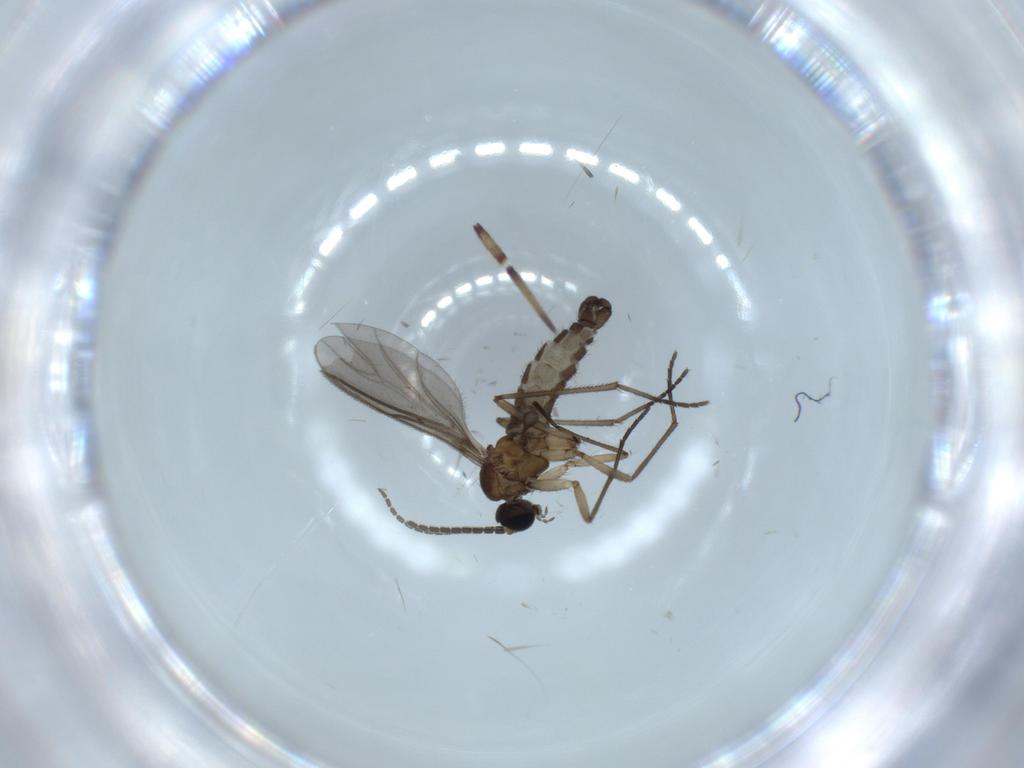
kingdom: Animalia
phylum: Arthropoda
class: Insecta
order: Diptera
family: Sciaridae
